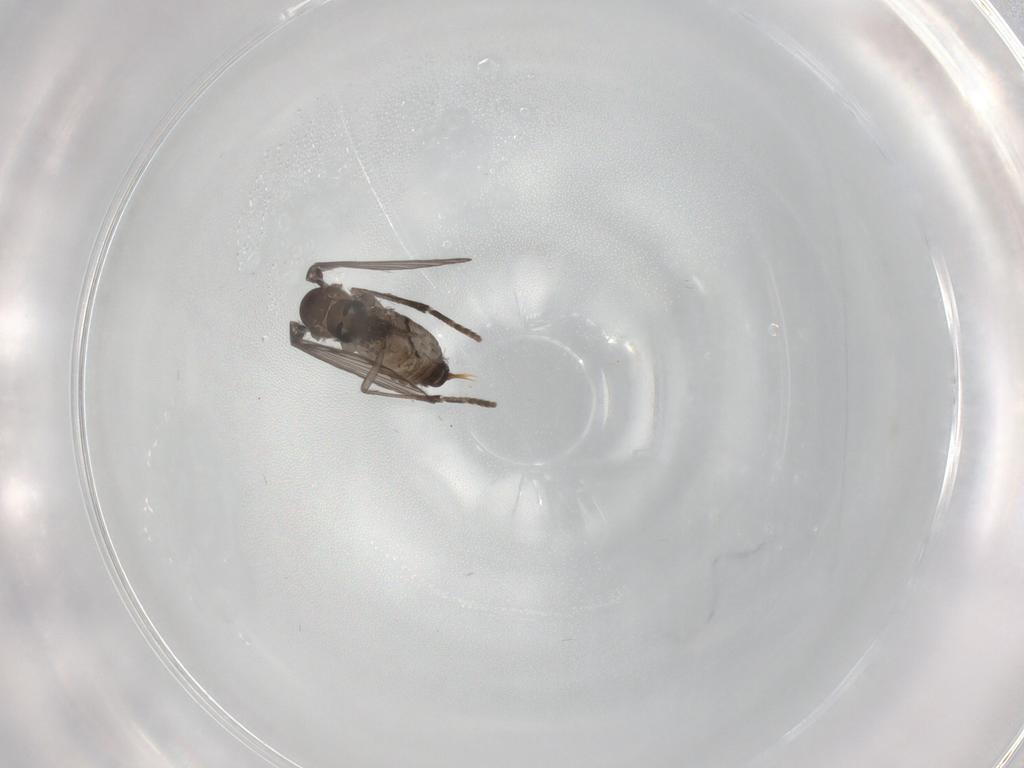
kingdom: Animalia
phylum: Arthropoda
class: Insecta
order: Diptera
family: Psychodidae
